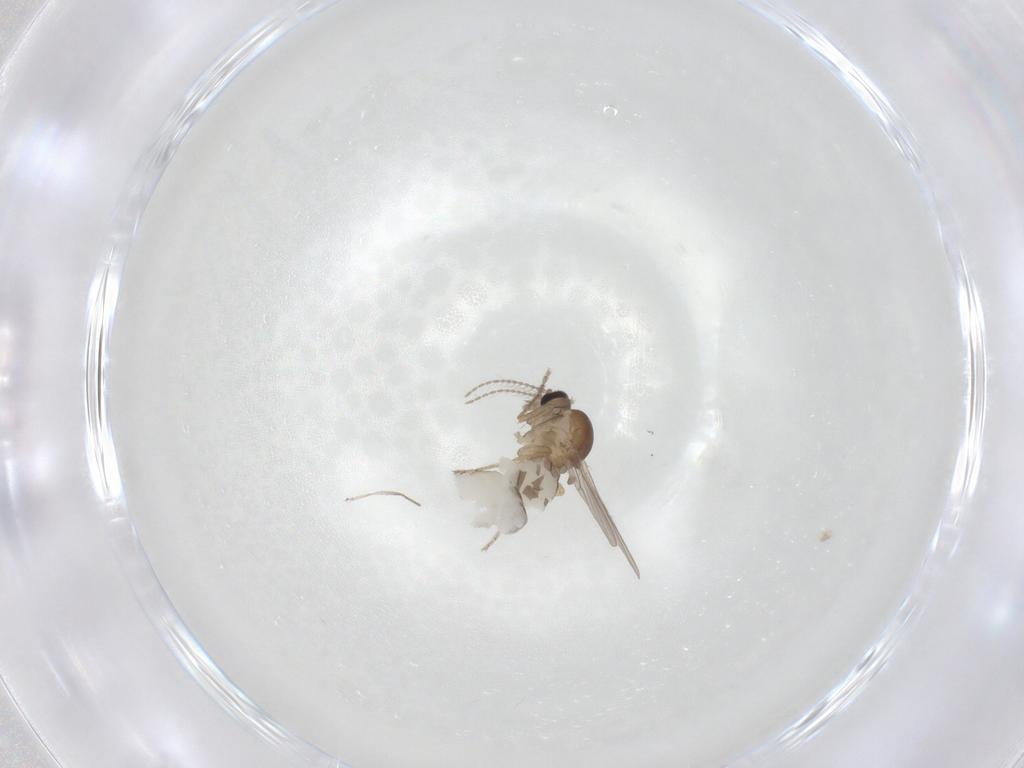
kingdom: Animalia
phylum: Arthropoda
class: Insecta
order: Diptera
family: Ceratopogonidae
